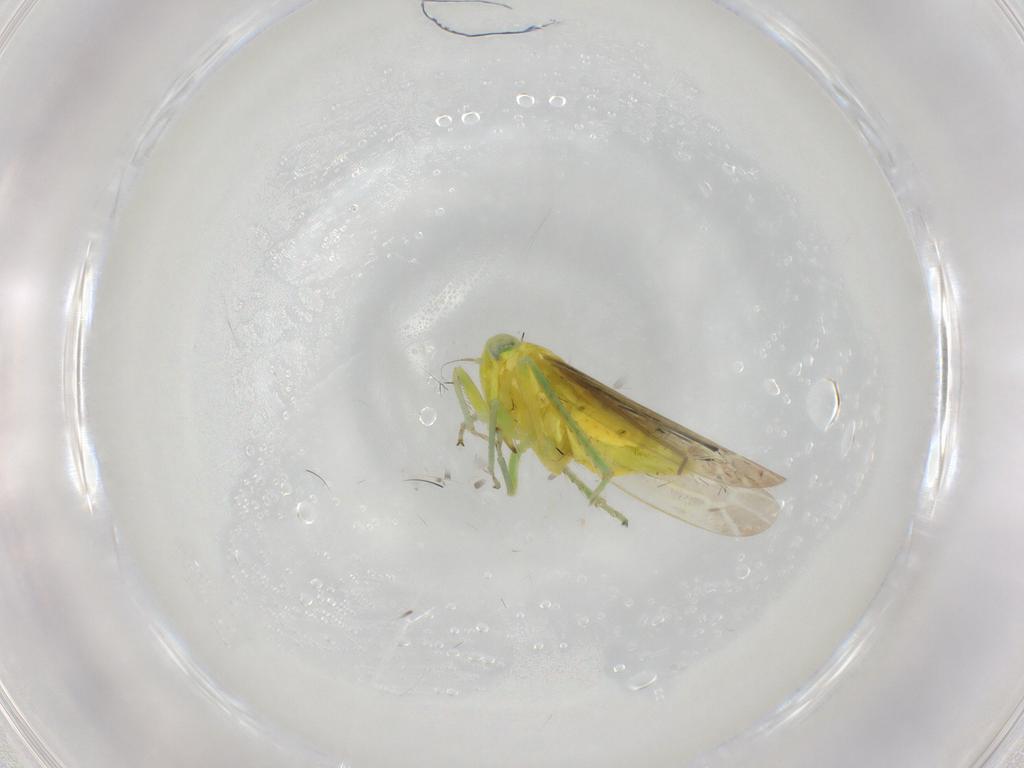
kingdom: Animalia
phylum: Arthropoda
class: Insecta
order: Hemiptera
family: Cicadellidae
